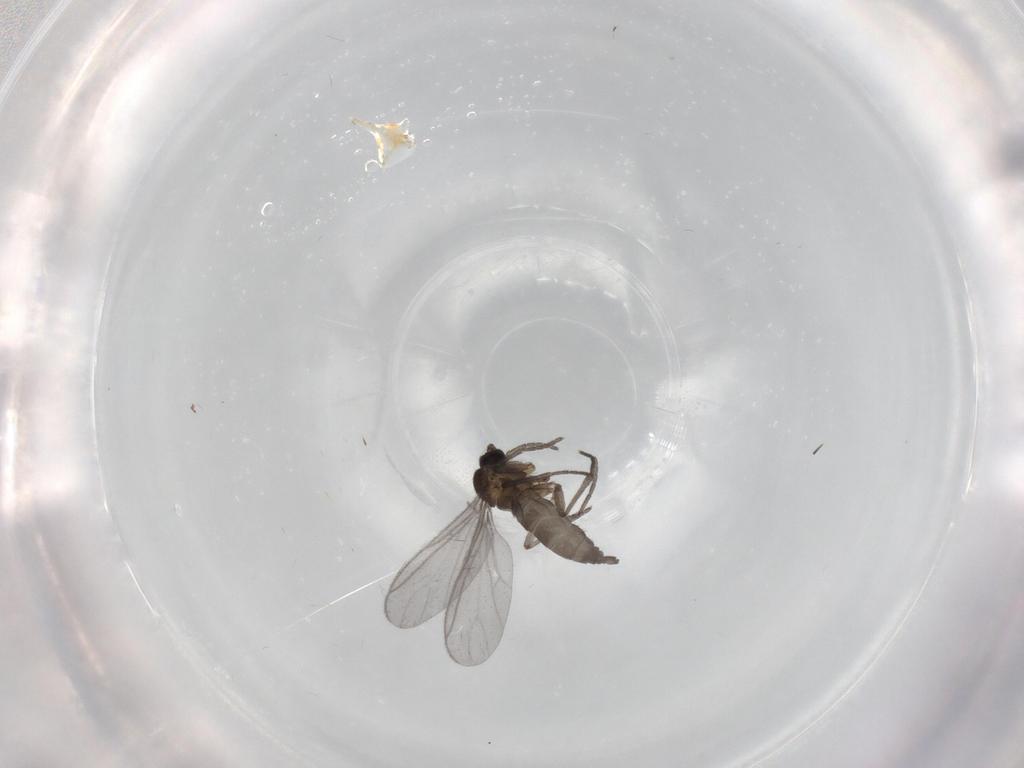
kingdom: Animalia
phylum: Arthropoda
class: Insecta
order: Diptera
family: Sciaridae
